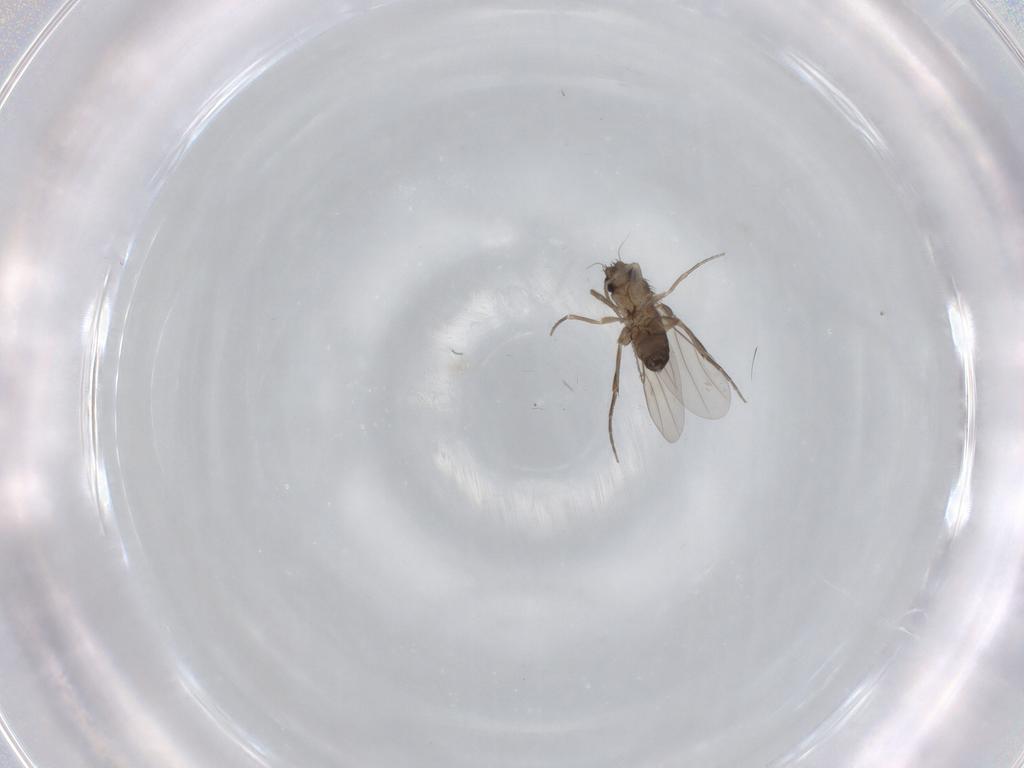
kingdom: Animalia
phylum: Arthropoda
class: Insecta
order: Diptera
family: Phoridae
